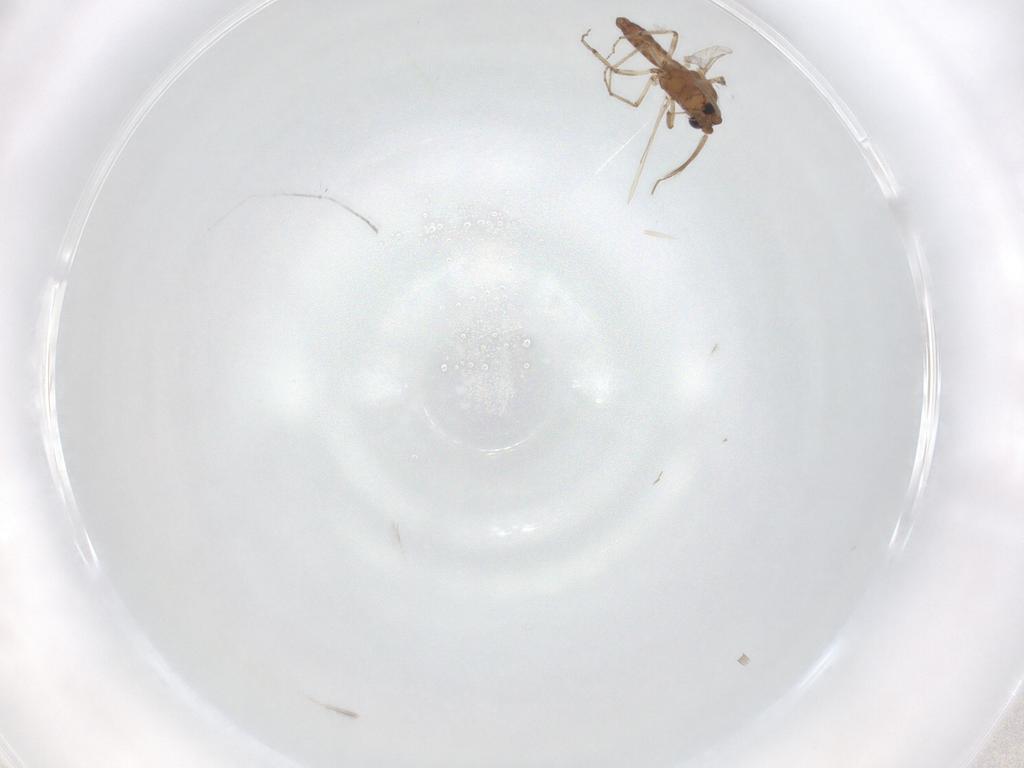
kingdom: Animalia
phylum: Arthropoda
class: Insecta
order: Diptera
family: Ceratopogonidae
